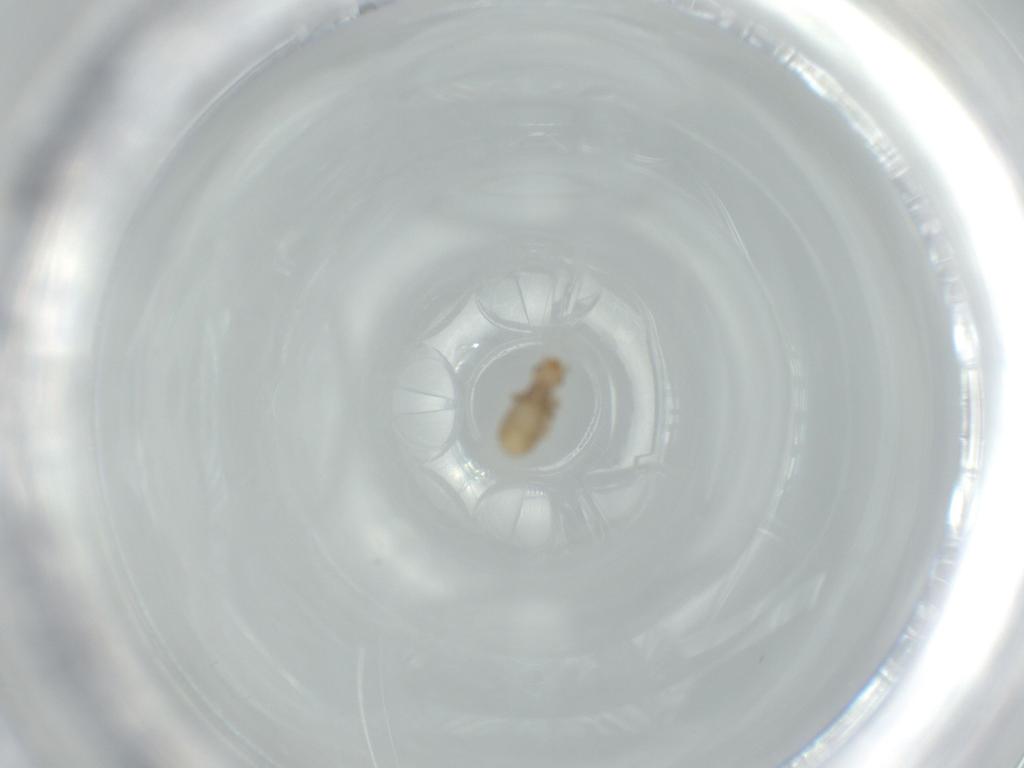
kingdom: Animalia
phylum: Arthropoda
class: Insecta
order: Psocodea
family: Liposcelididae
